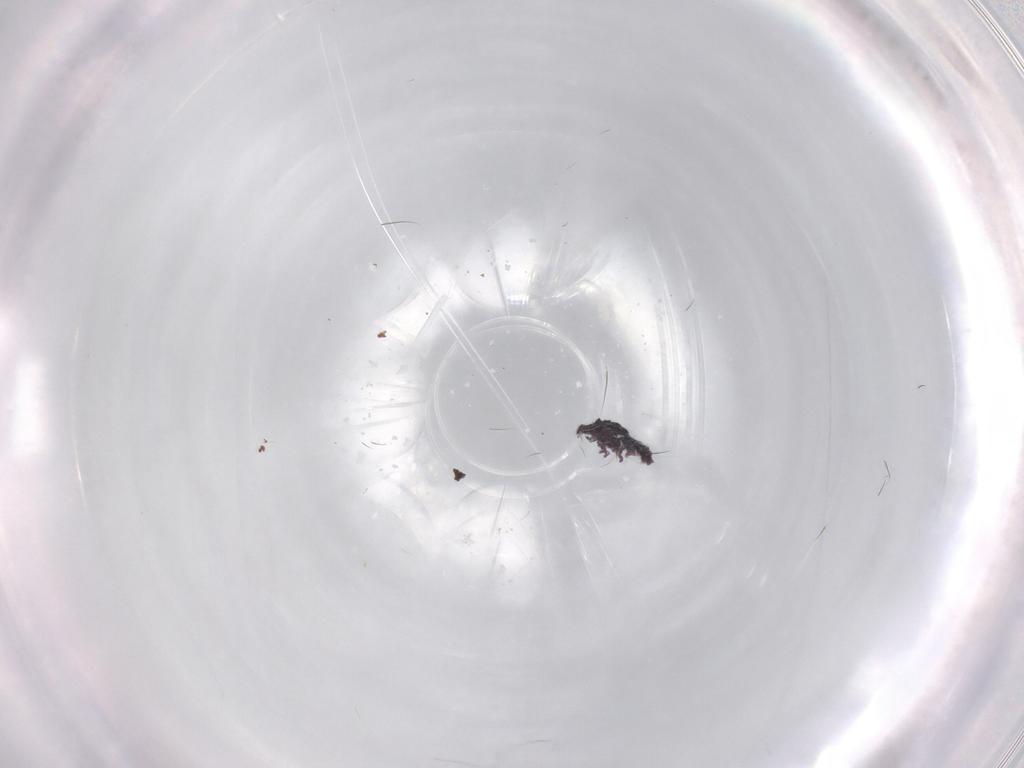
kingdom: Animalia
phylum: Arthropoda
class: Collembola
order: Poduromorpha
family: Hypogastruridae
